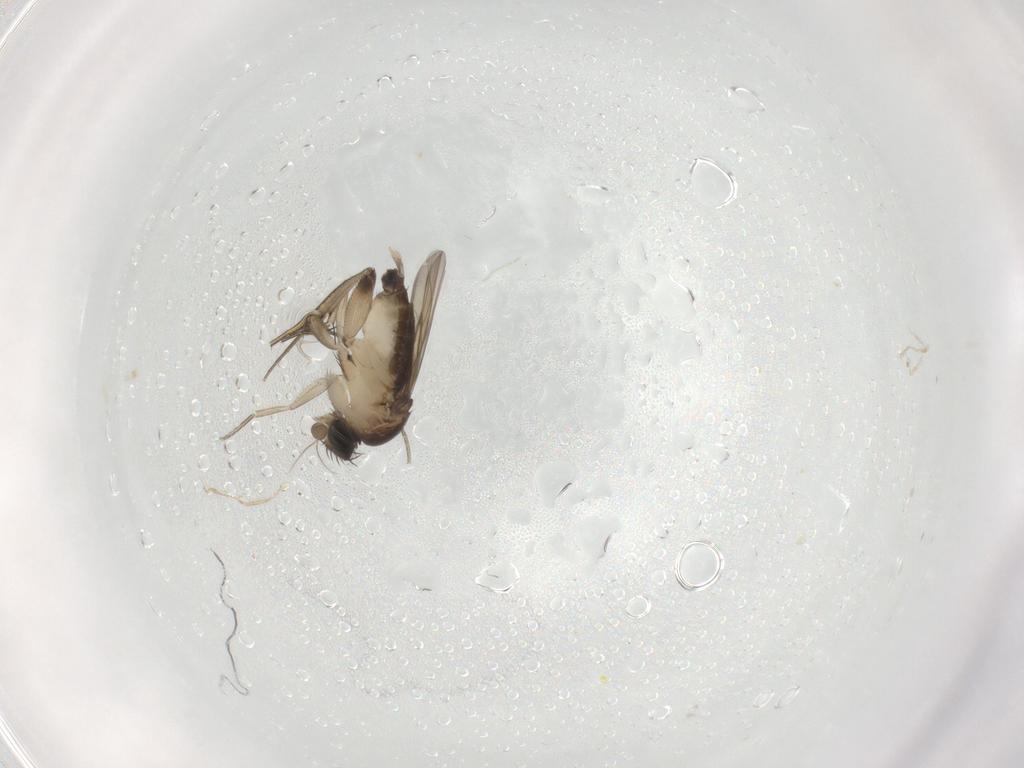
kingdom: Animalia
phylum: Arthropoda
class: Insecta
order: Diptera
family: Phoridae
